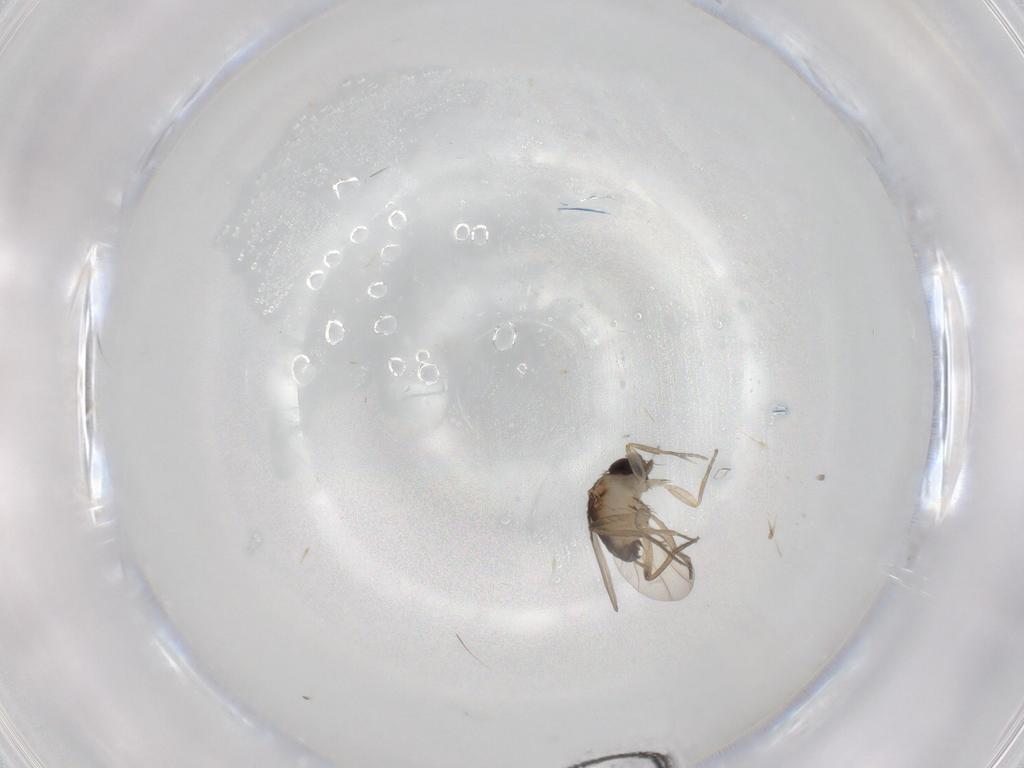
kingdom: Animalia
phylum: Arthropoda
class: Insecta
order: Diptera
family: Phoridae
